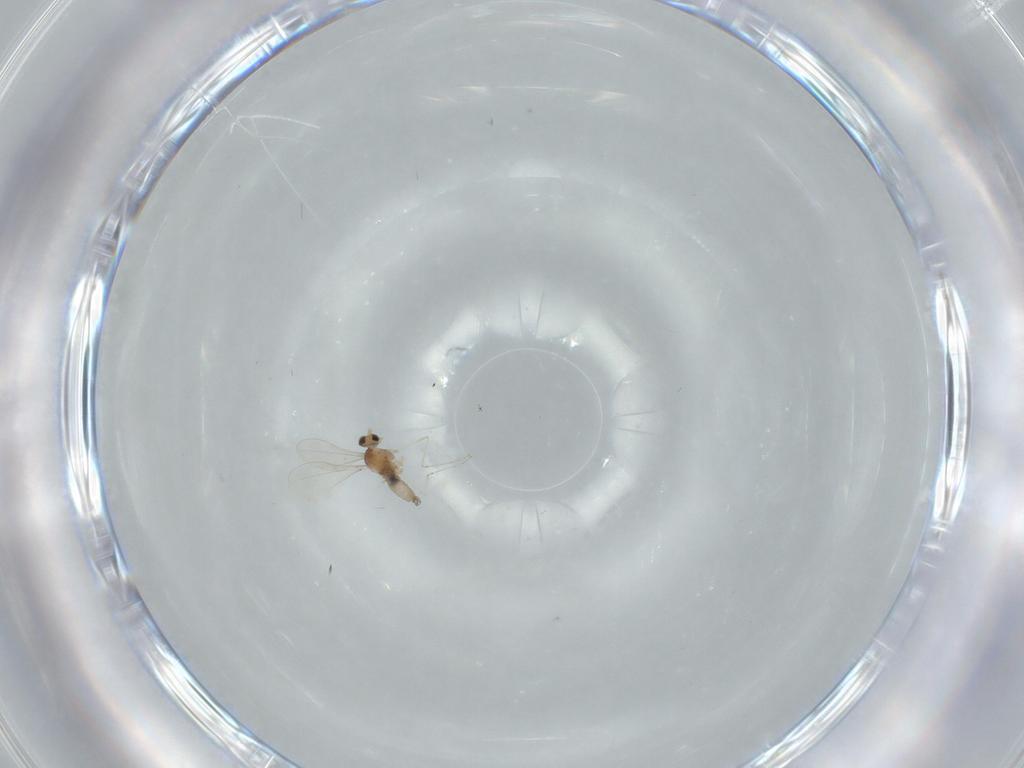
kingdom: Animalia
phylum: Arthropoda
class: Insecta
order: Diptera
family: Cecidomyiidae
